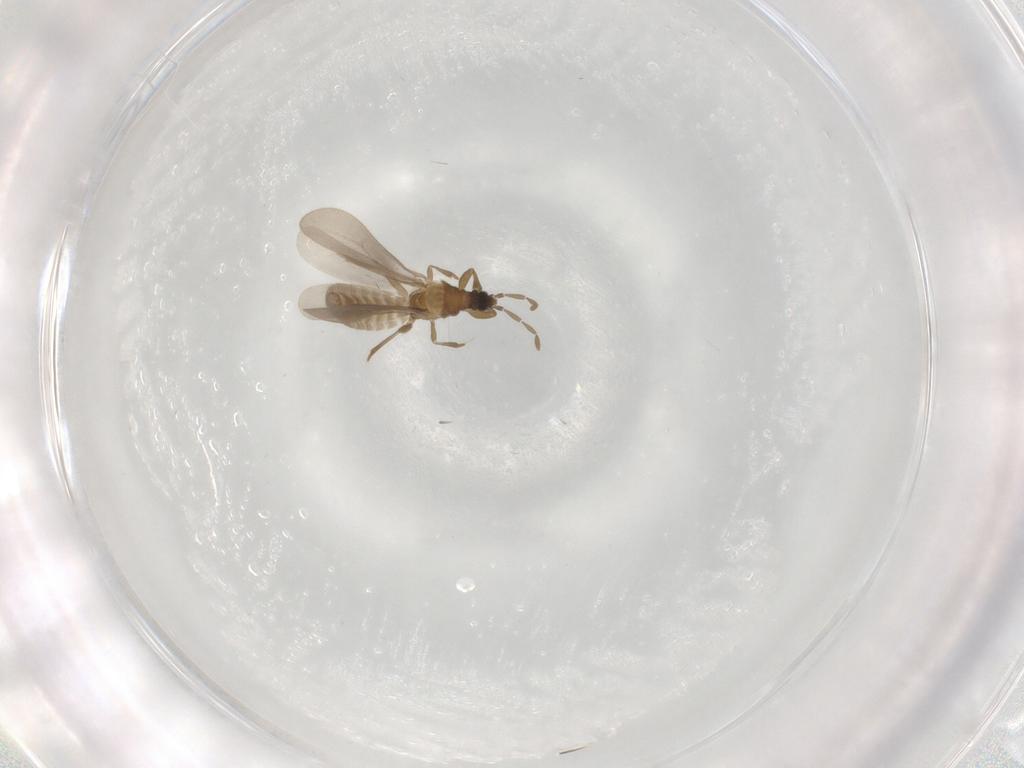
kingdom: Animalia
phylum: Arthropoda
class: Insecta
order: Hemiptera
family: Enicocephalidae
